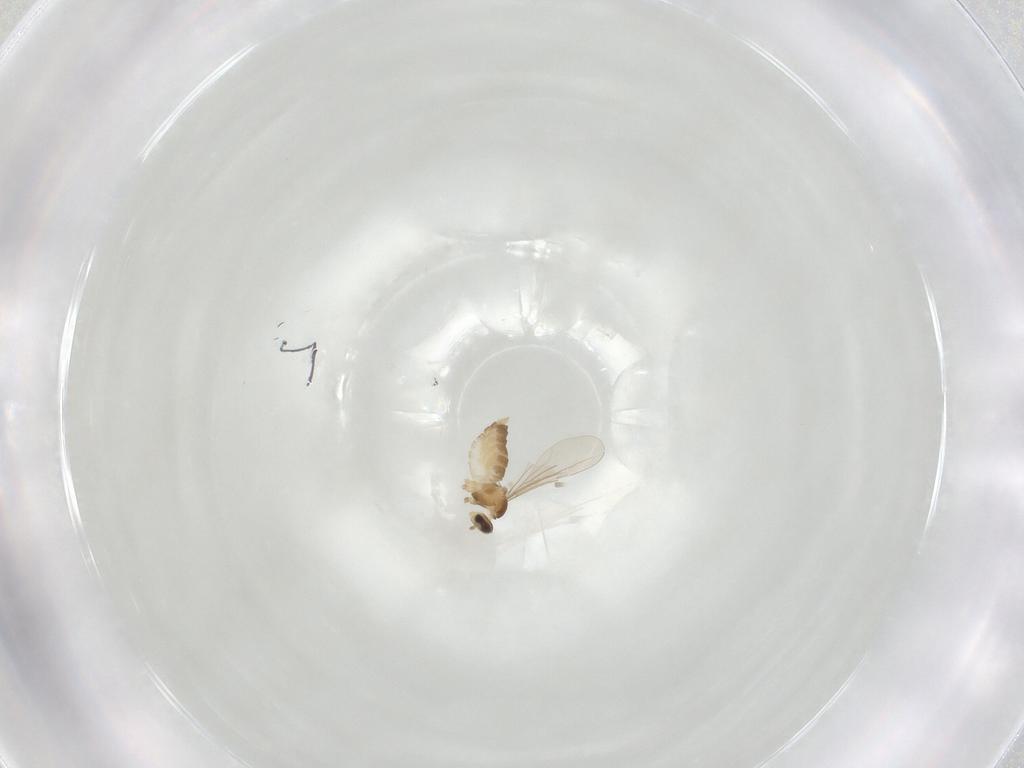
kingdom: Animalia
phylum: Arthropoda
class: Insecta
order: Diptera
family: Cecidomyiidae
